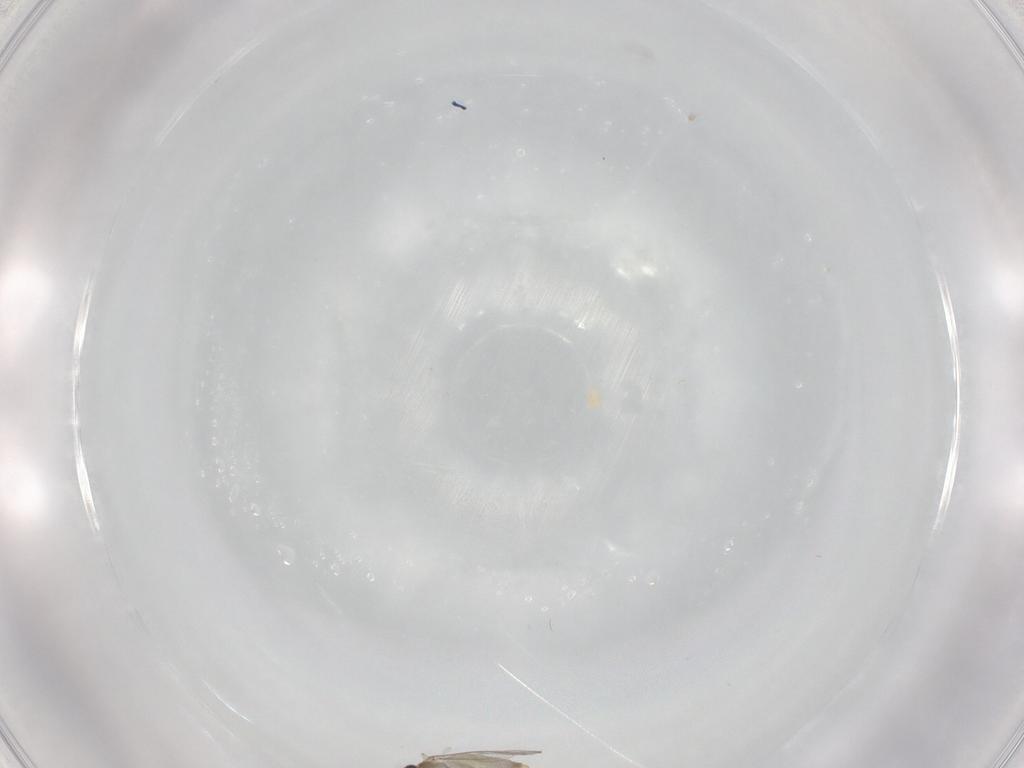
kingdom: Animalia
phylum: Arthropoda
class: Insecta
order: Diptera
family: Cecidomyiidae
